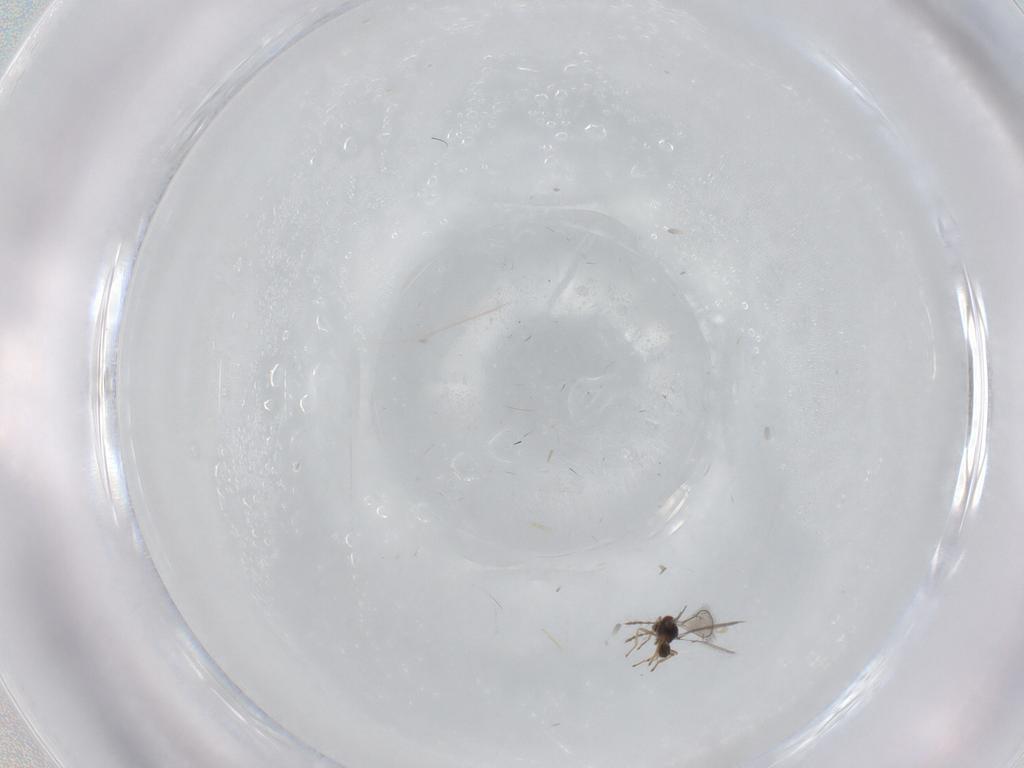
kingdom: Animalia
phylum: Arthropoda
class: Insecta
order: Hymenoptera
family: Eulophidae
